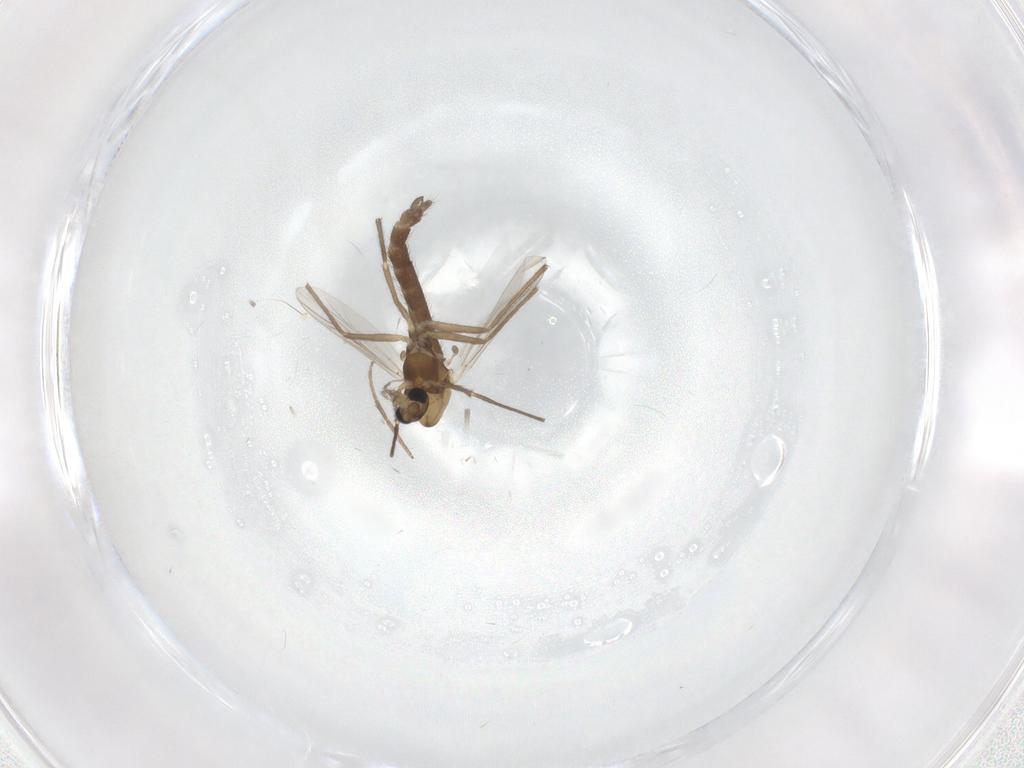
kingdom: Animalia
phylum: Arthropoda
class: Insecta
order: Diptera
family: Chironomidae
